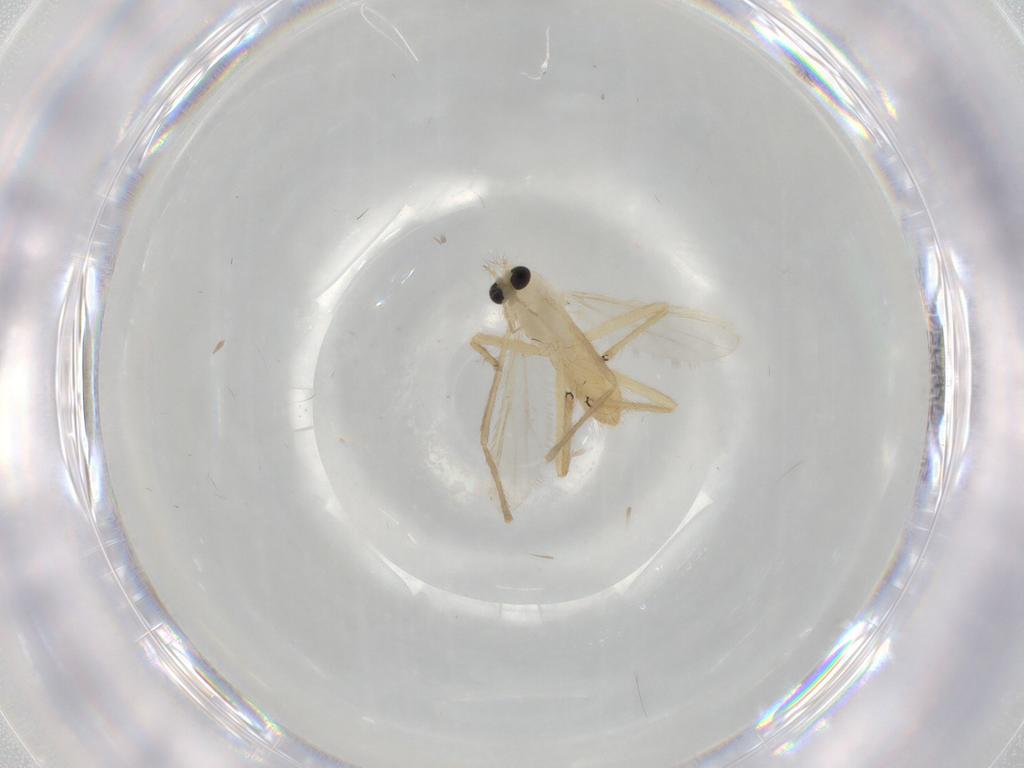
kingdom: Animalia
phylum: Arthropoda
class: Insecta
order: Diptera
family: Chironomidae
